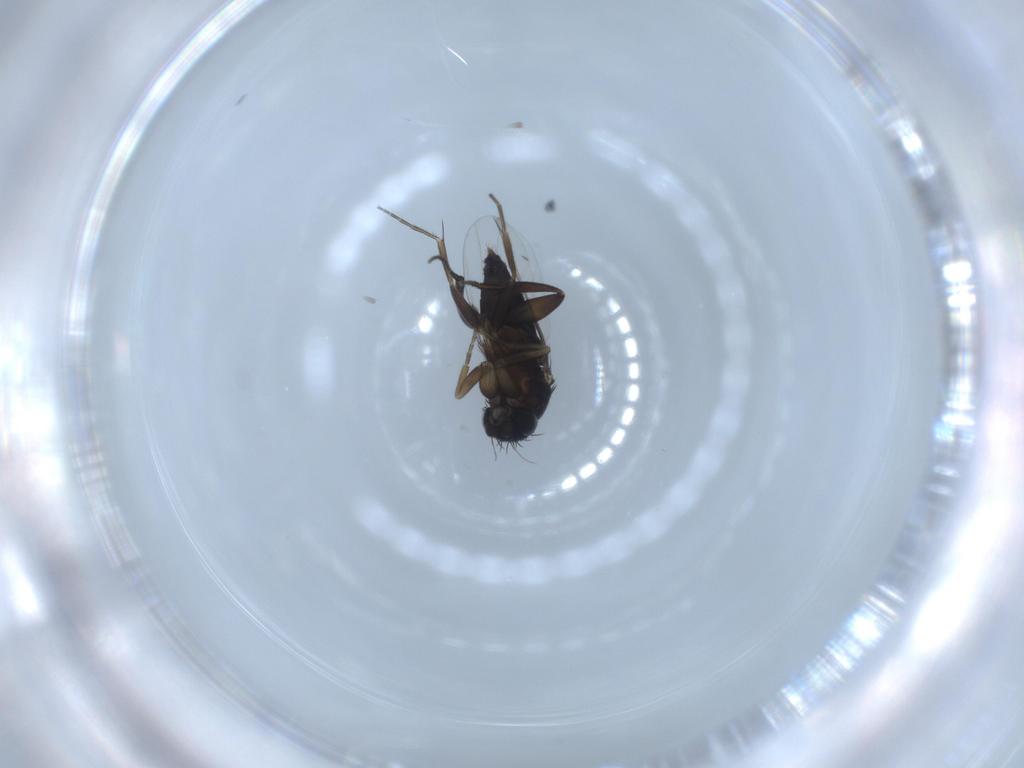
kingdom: Animalia
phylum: Arthropoda
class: Insecta
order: Diptera
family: Phoridae
